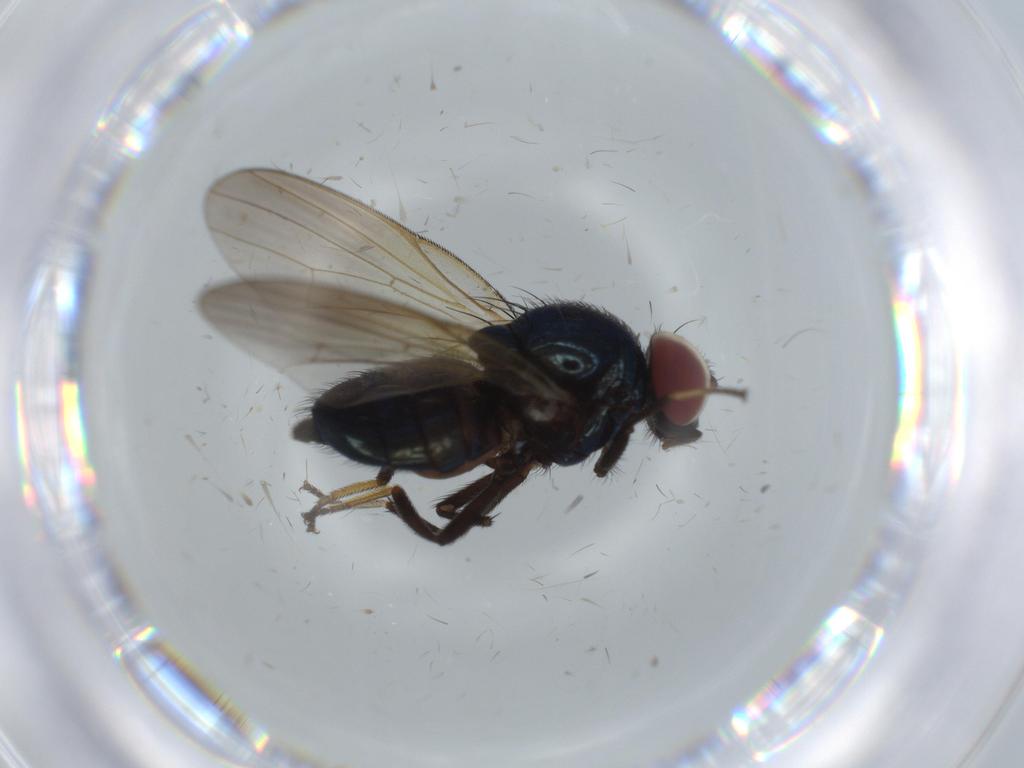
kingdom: Animalia
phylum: Arthropoda
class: Insecta
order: Diptera
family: Lonchaeidae
